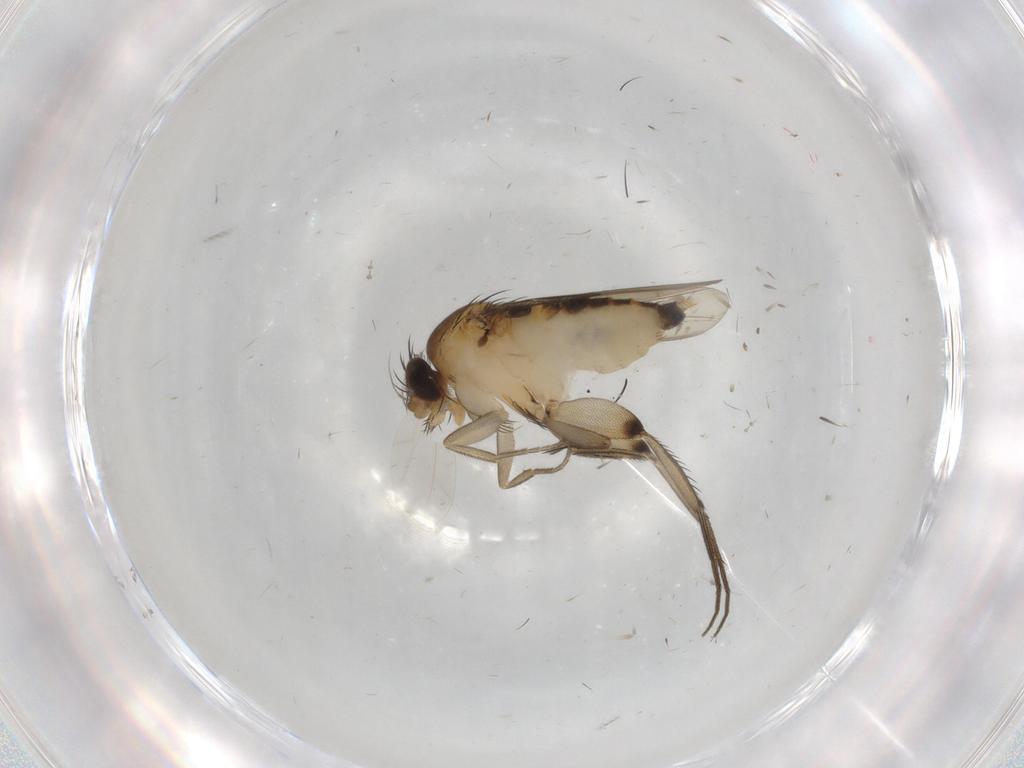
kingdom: Animalia
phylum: Arthropoda
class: Insecta
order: Diptera
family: Phoridae
